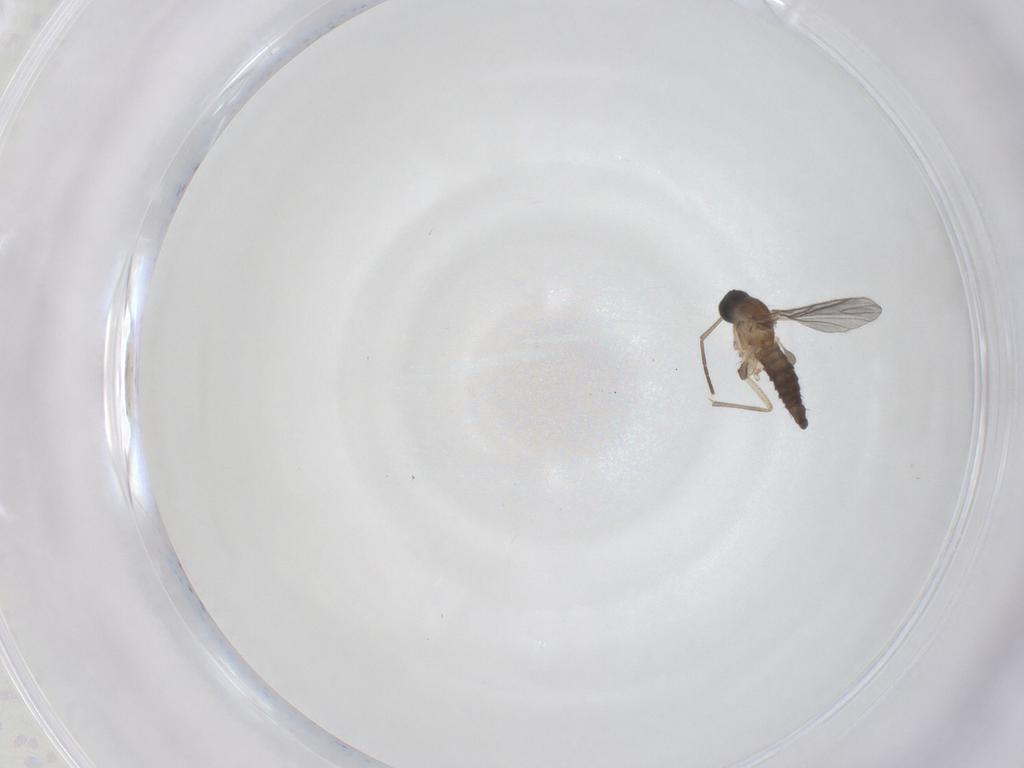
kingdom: Animalia
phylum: Arthropoda
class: Insecta
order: Diptera
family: Sciaridae
